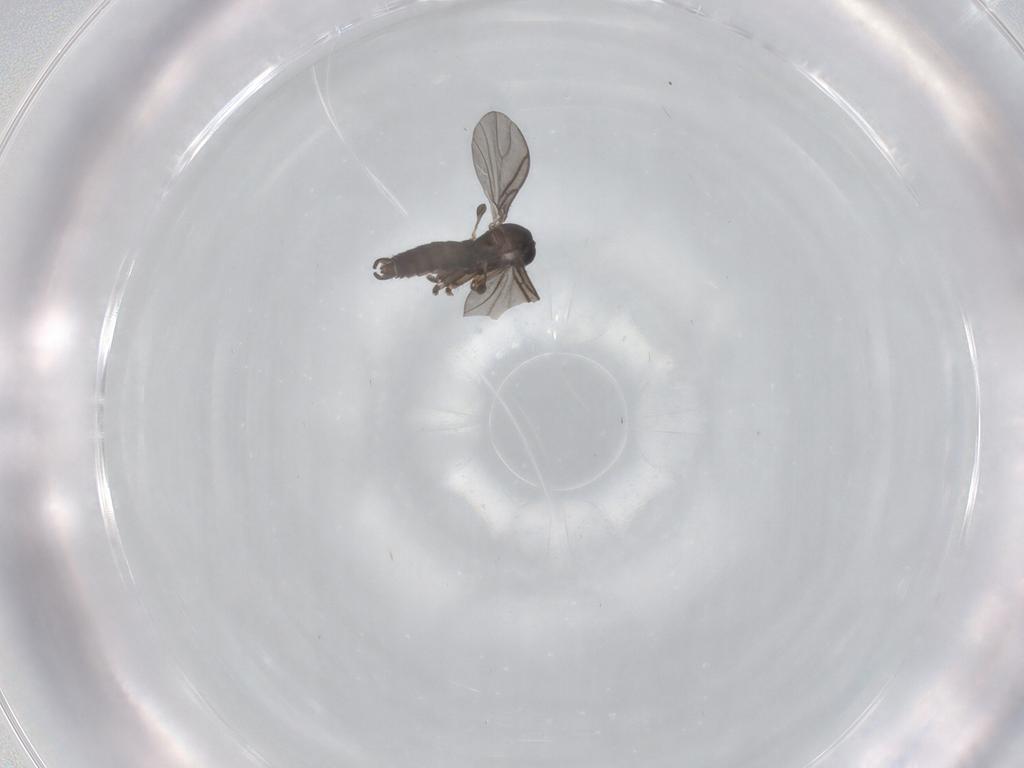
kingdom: Animalia
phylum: Arthropoda
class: Insecta
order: Diptera
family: Sciaridae
